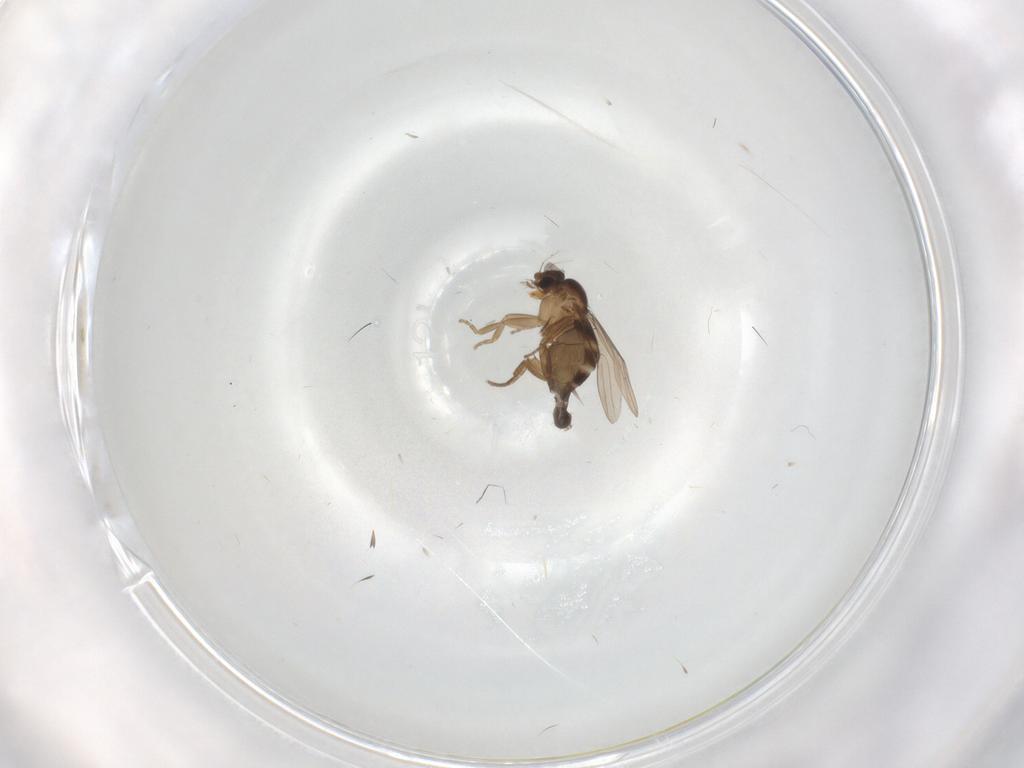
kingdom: Animalia
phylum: Arthropoda
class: Insecta
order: Diptera
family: Phoridae
